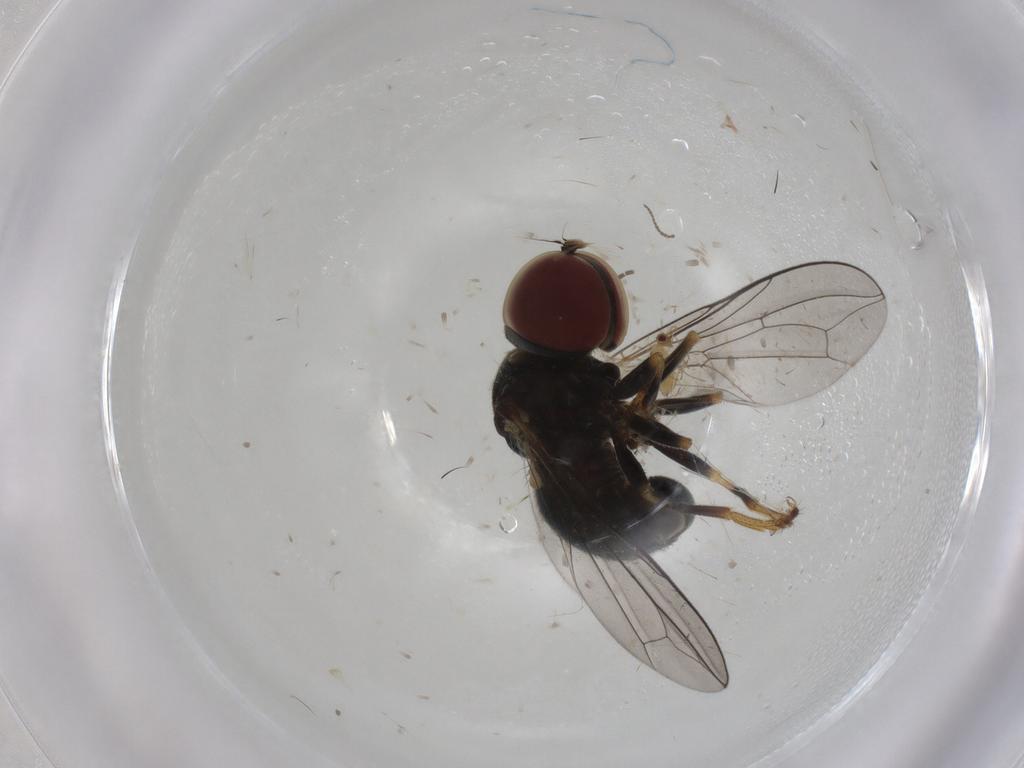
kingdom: Animalia
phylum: Arthropoda
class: Insecta
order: Diptera
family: Pipunculidae
